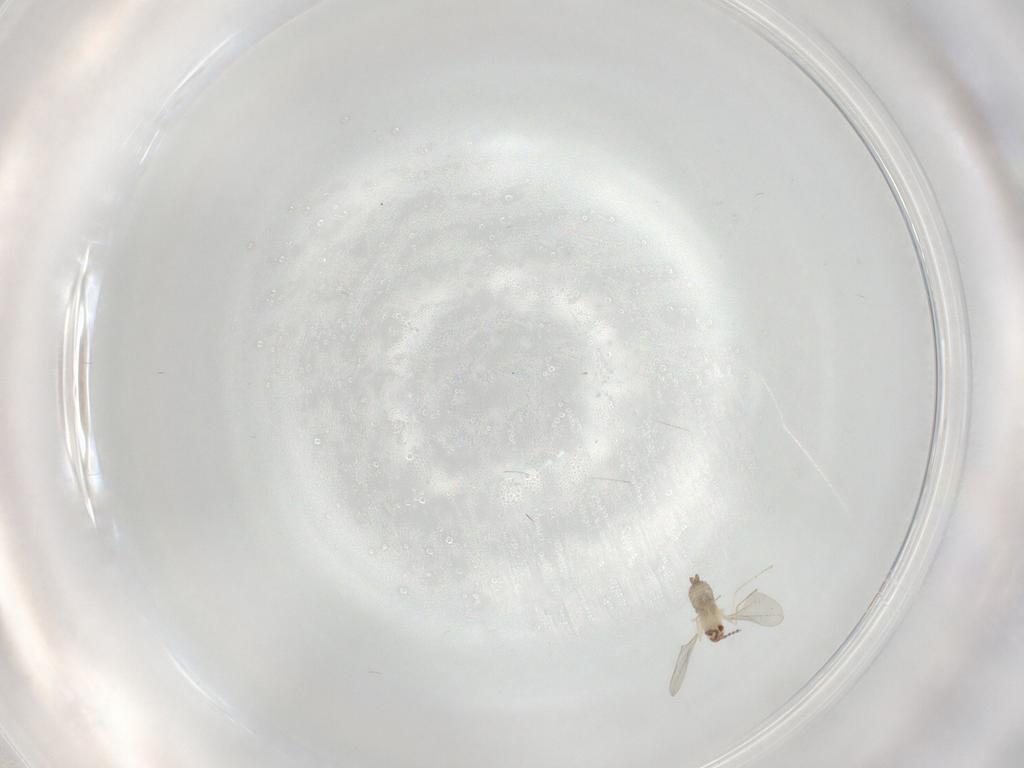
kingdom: Animalia
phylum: Arthropoda
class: Insecta
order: Diptera
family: Cecidomyiidae
